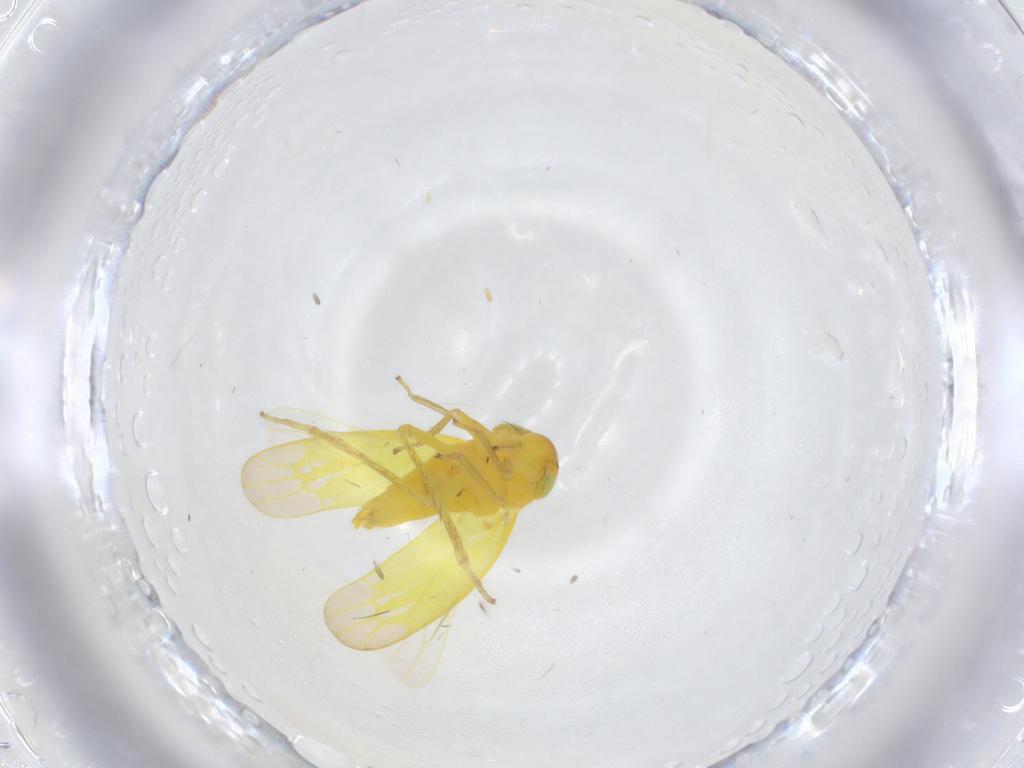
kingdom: Animalia
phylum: Arthropoda
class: Insecta
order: Hemiptera
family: Cicadellidae
